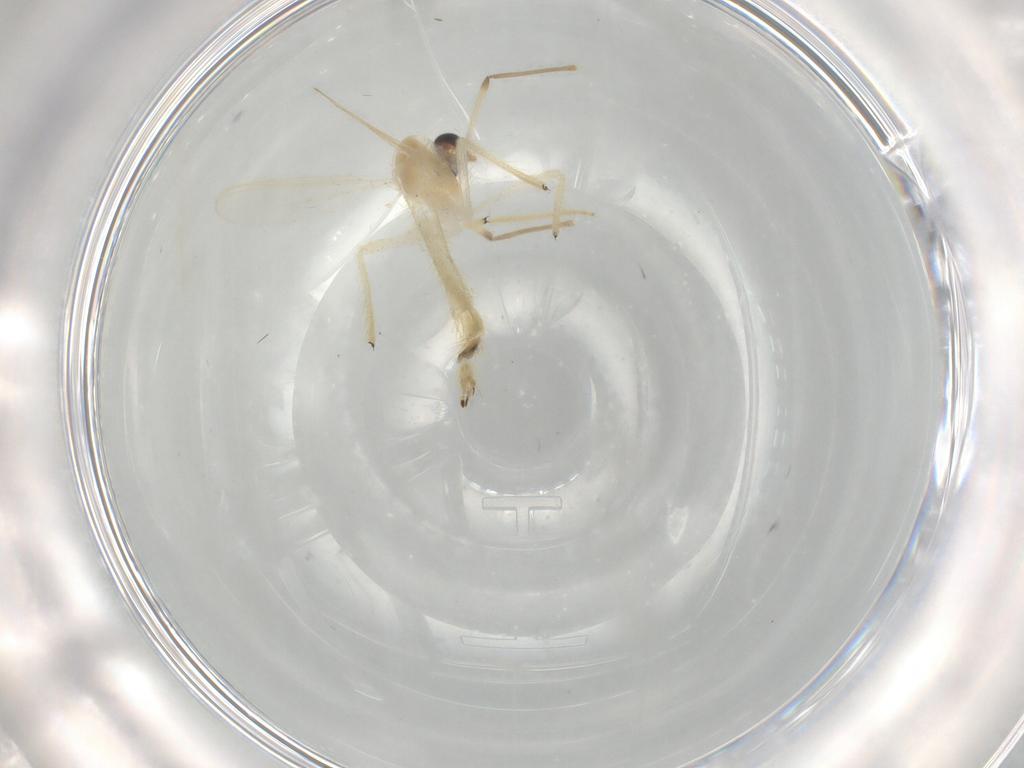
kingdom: Animalia
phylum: Arthropoda
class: Insecta
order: Diptera
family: Chironomidae
